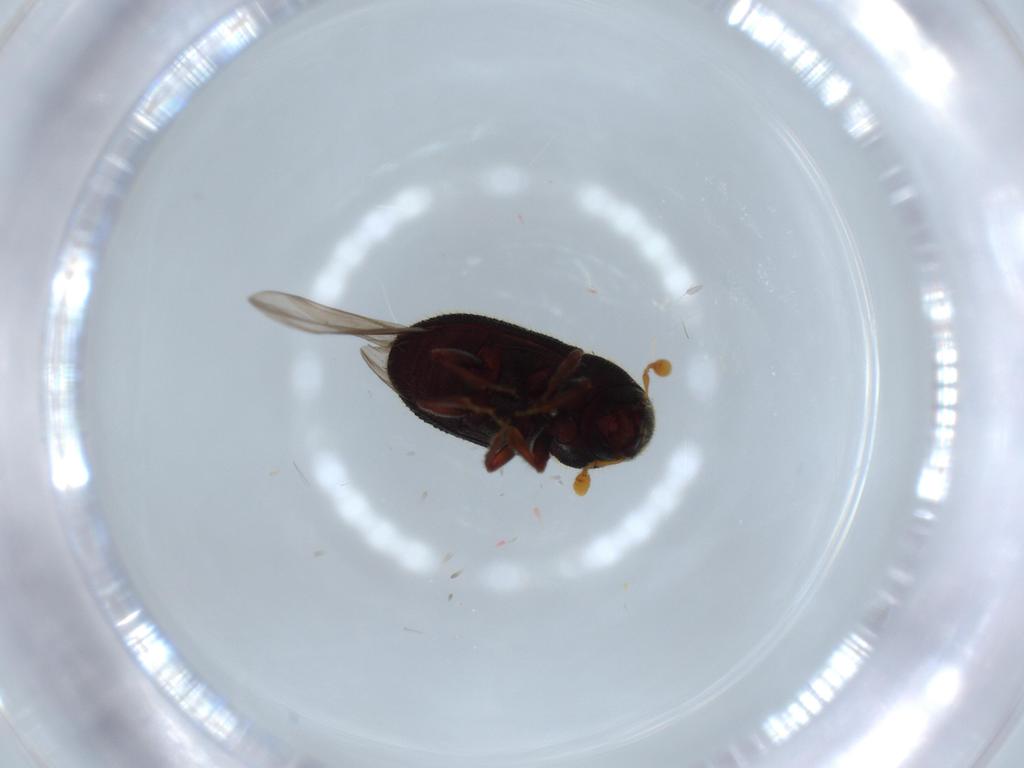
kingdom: Animalia
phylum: Arthropoda
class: Insecta
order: Coleoptera
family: Curculionidae
